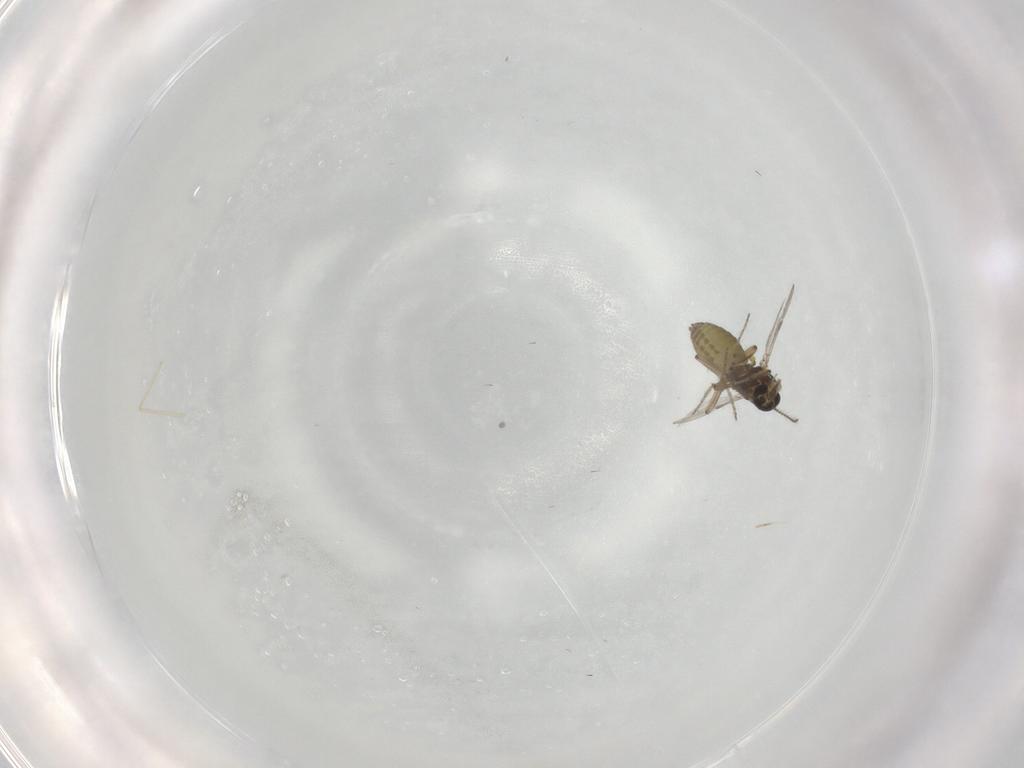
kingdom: Animalia
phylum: Arthropoda
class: Insecta
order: Diptera
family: Ceratopogonidae
